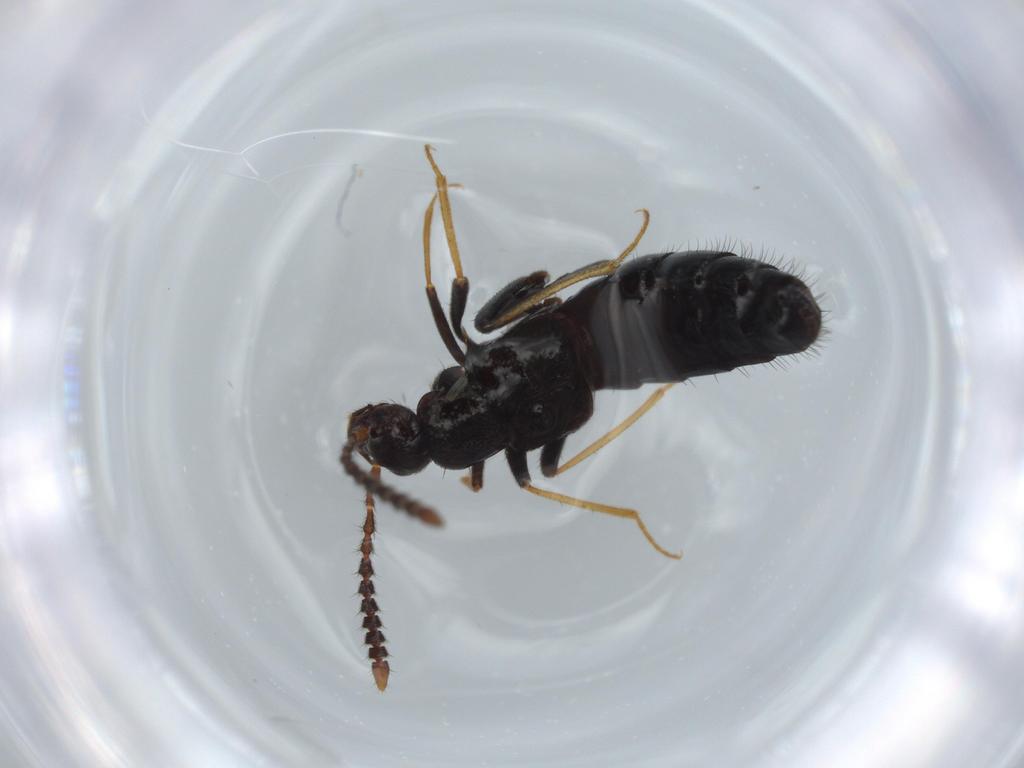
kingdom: Animalia
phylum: Arthropoda
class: Insecta
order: Coleoptera
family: Staphylinidae
